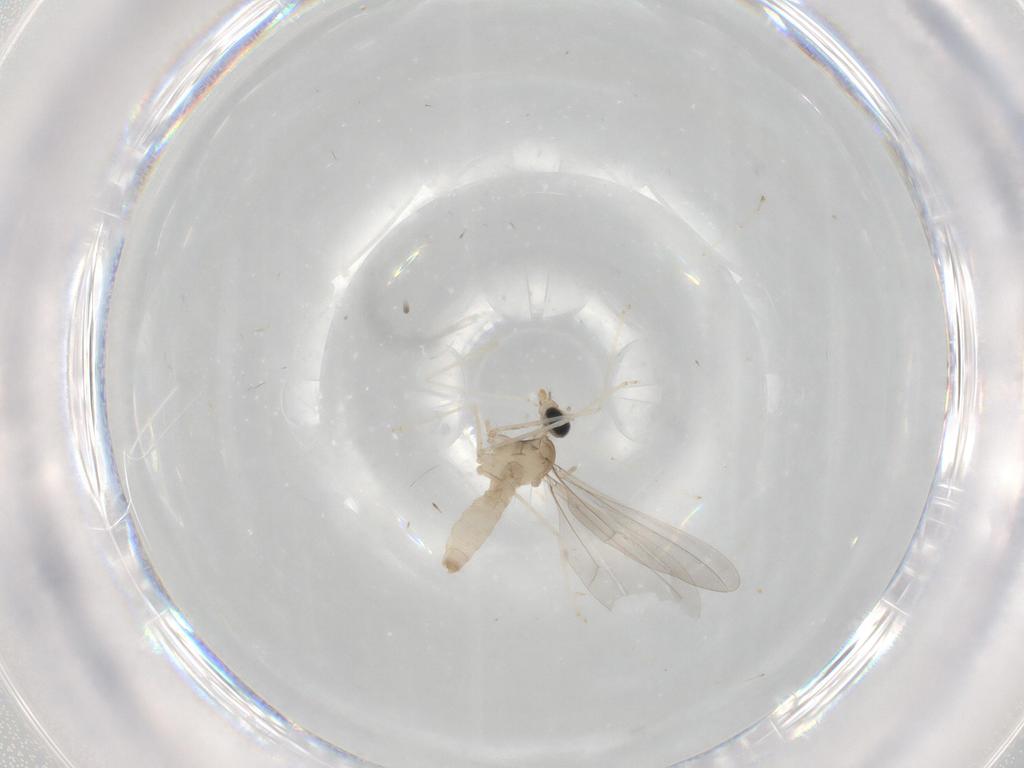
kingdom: Animalia
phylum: Arthropoda
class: Insecta
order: Diptera
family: Cecidomyiidae
